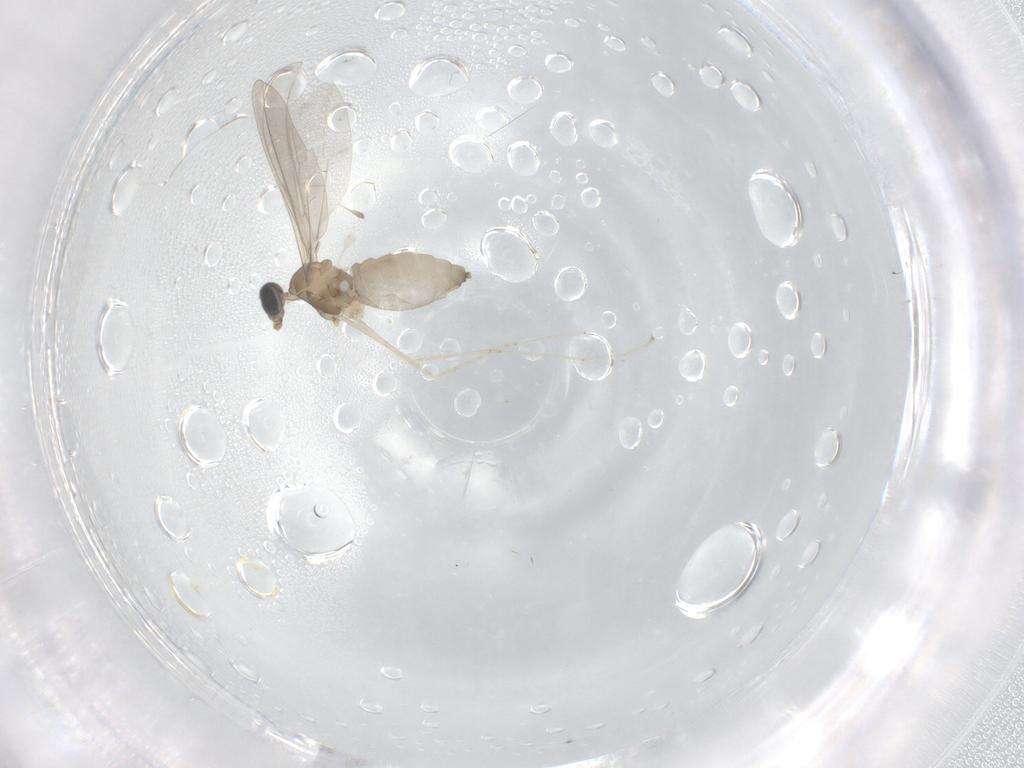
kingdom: Animalia
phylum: Arthropoda
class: Insecta
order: Diptera
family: Cecidomyiidae
